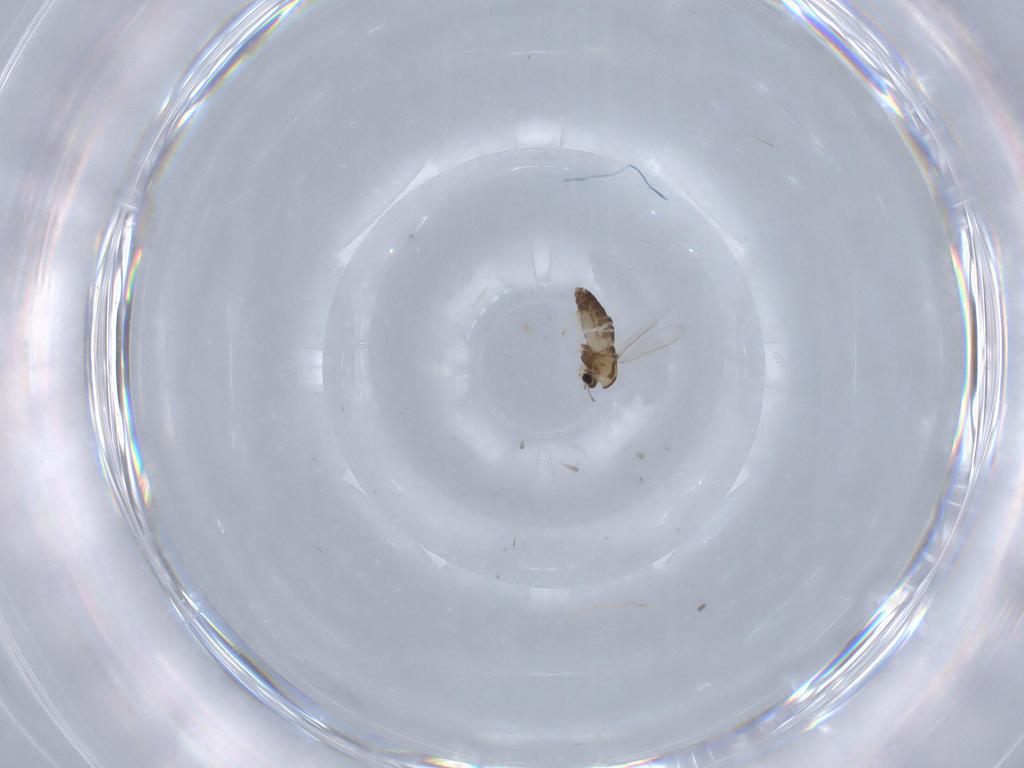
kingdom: Animalia
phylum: Arthropoda
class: Insecta
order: Diptera
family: Chironomidae
